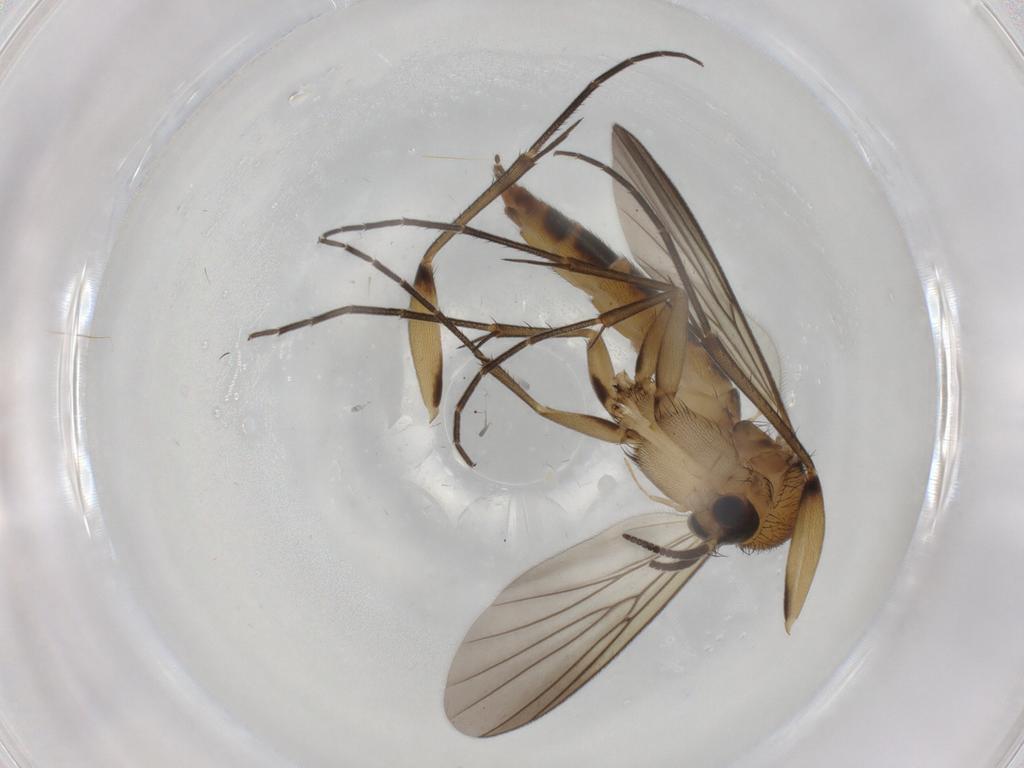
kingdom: Animalia
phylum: Arthropoda
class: Insecta
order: Diptera
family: Mycetophilidae
